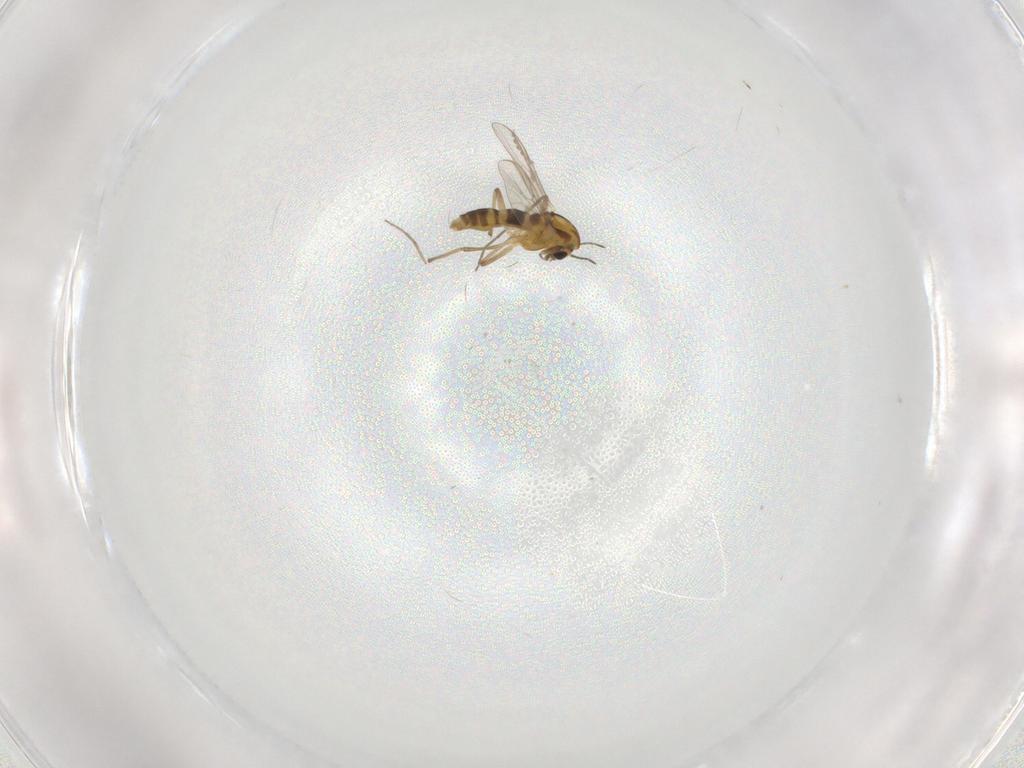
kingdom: Animalia
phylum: Arthropoda
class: Insecta
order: Diptera
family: Chironomidae
